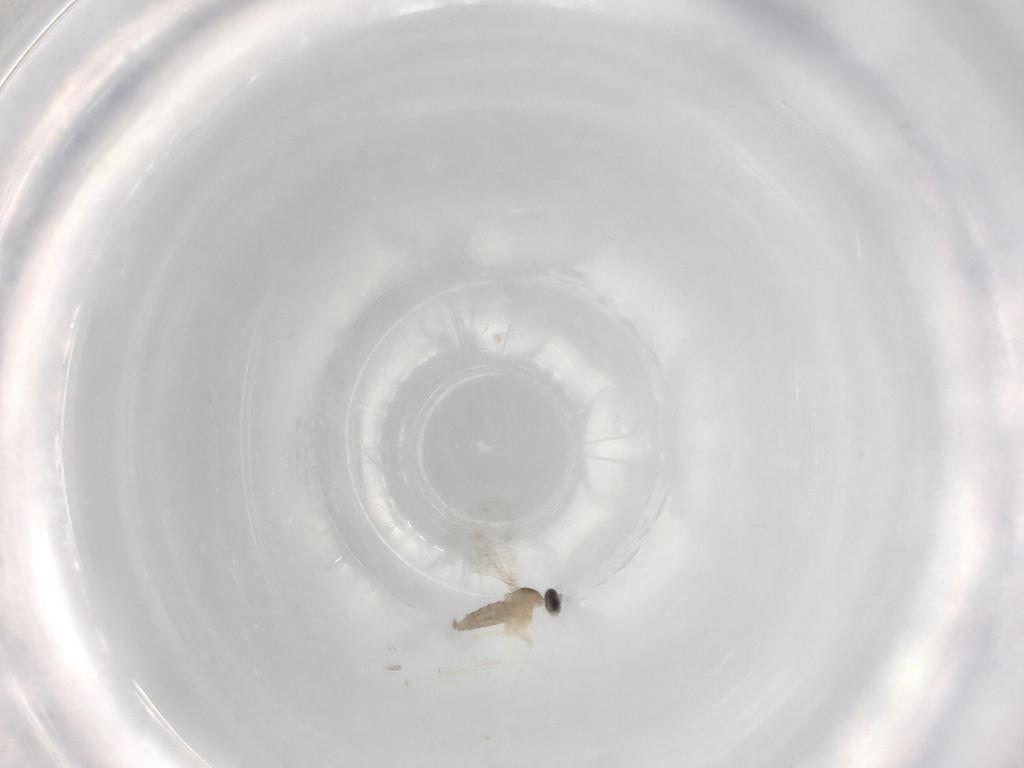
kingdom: Animalia
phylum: Arthropoda
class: Insecta
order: Diptera
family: Cecidomyiidae
